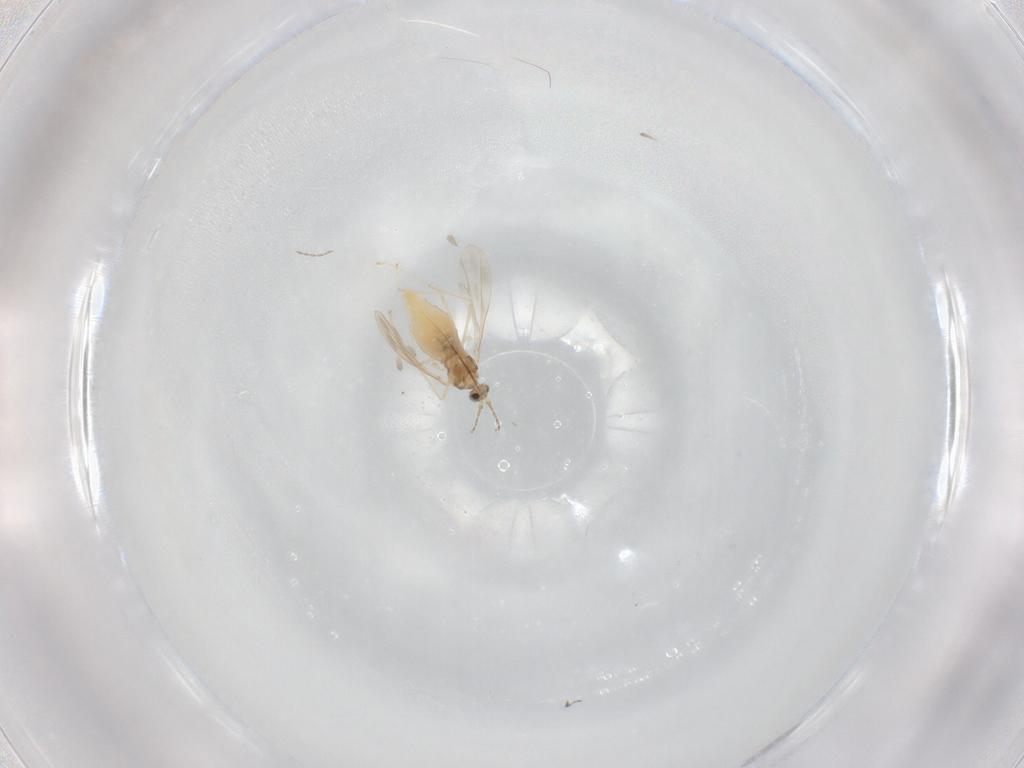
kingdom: Animalia
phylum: Arthropoda
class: Insecta
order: Diptera
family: Cecidomyiidae
